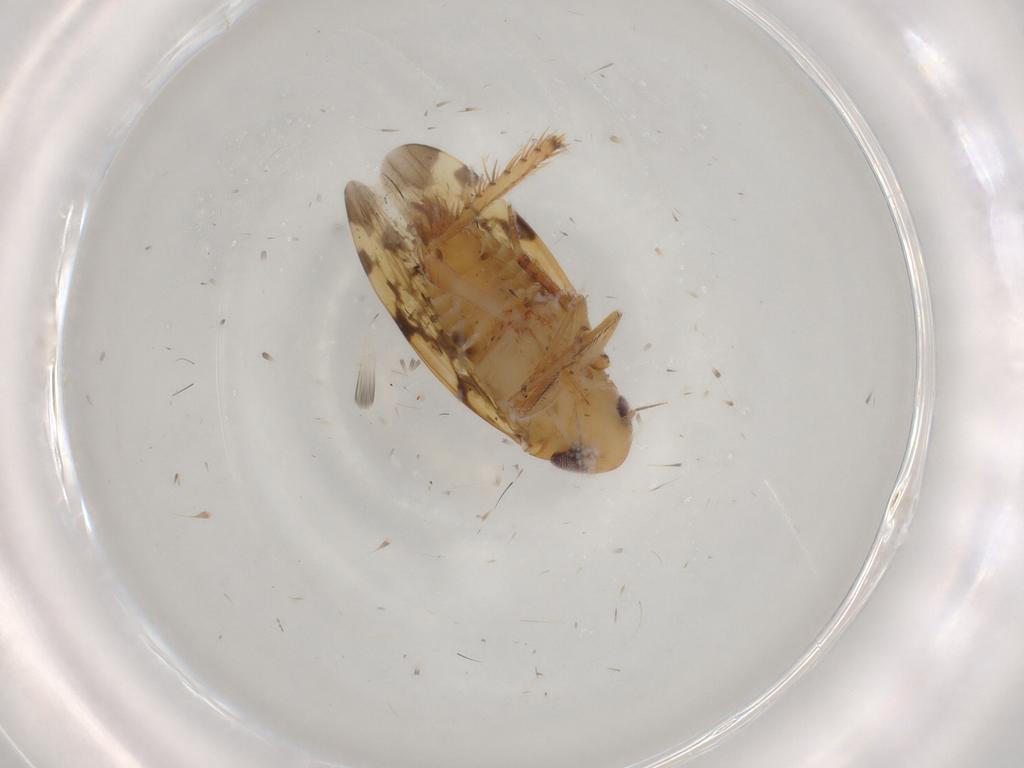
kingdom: Animalia
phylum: Arthropoda
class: Insecta
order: Hemiptera
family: Cicadellidae
